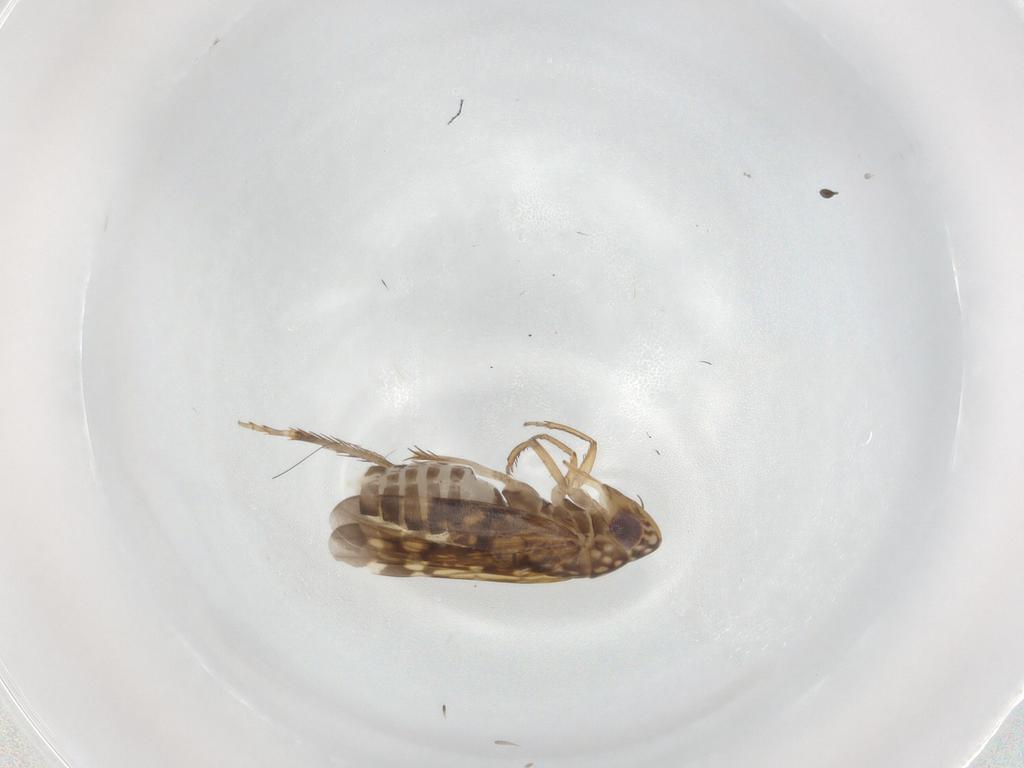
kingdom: Animalia
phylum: Arthropoda
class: Insecta
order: Hemiptera
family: Cicadellidae
